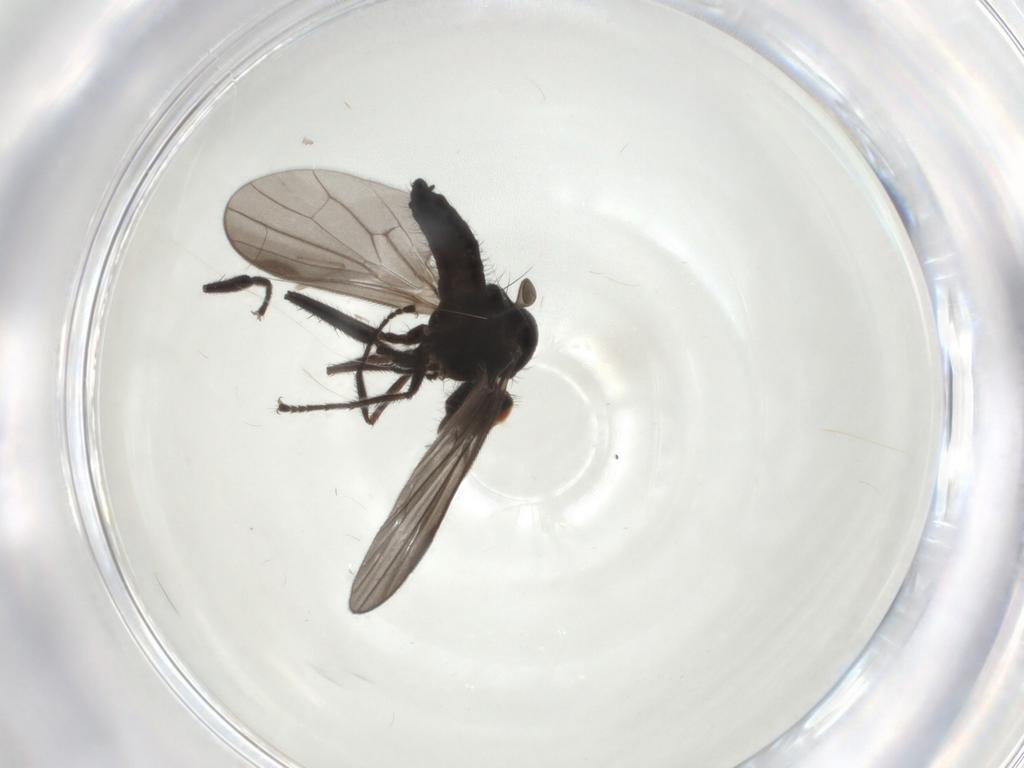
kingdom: Animalia
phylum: Arthropoda
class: Insecta
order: Diptera
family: Hybotidae
